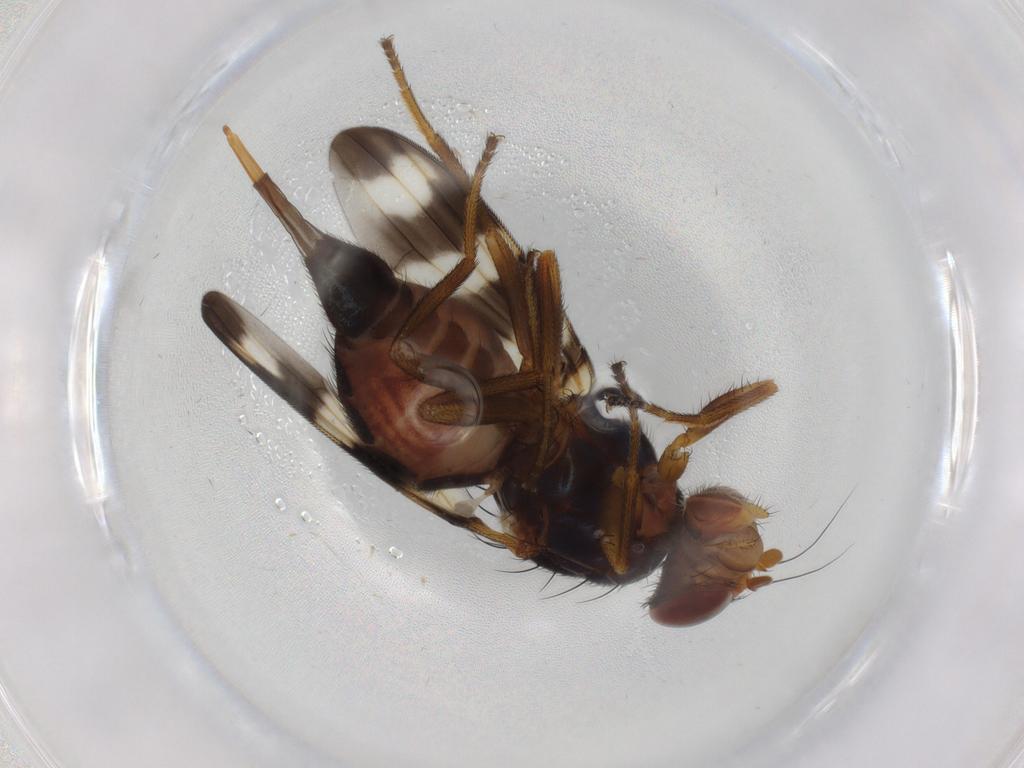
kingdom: Animalia
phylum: Arthropoda
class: Insecta
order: Diptera
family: Ulidiidae
